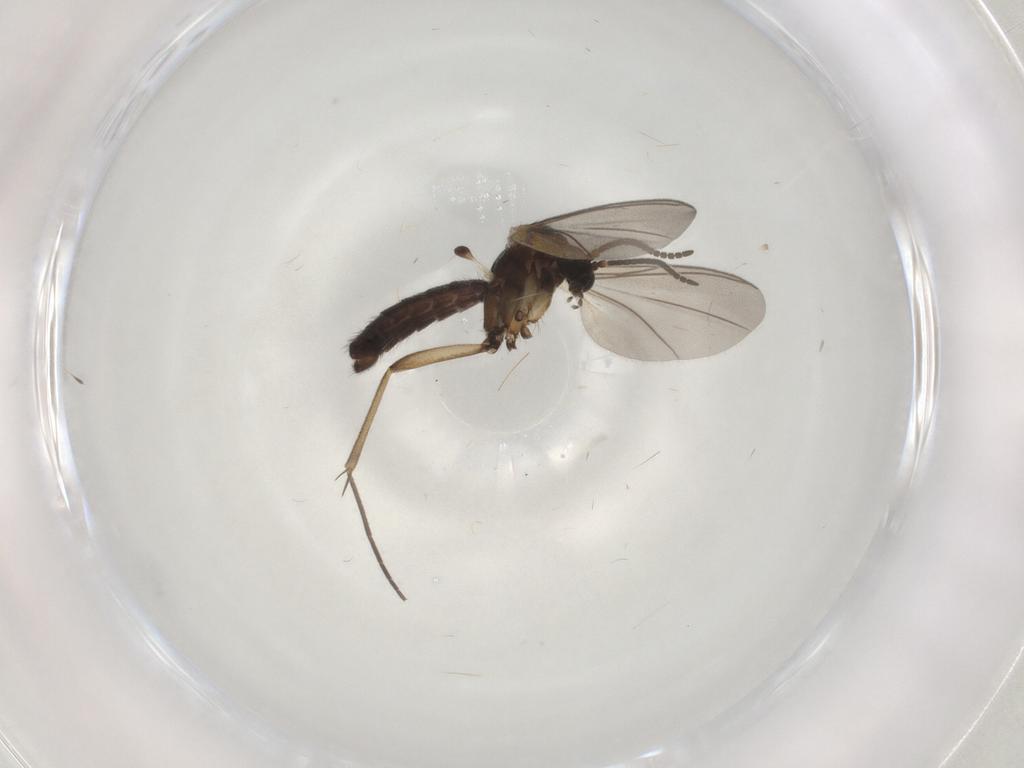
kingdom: Animalia
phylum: Arthropoda
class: Insecta
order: Diptera
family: Mycetophilidae
